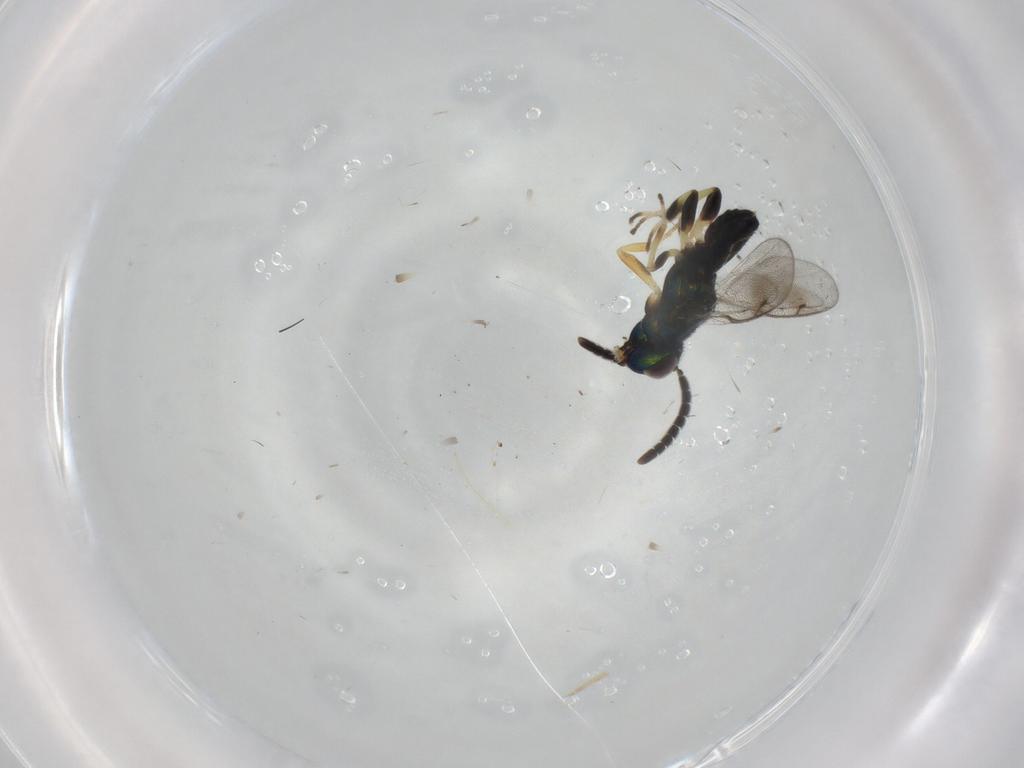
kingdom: Animalia
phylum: Arthropoda
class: Insecta
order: Hymenoptera
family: Eupelmidae
